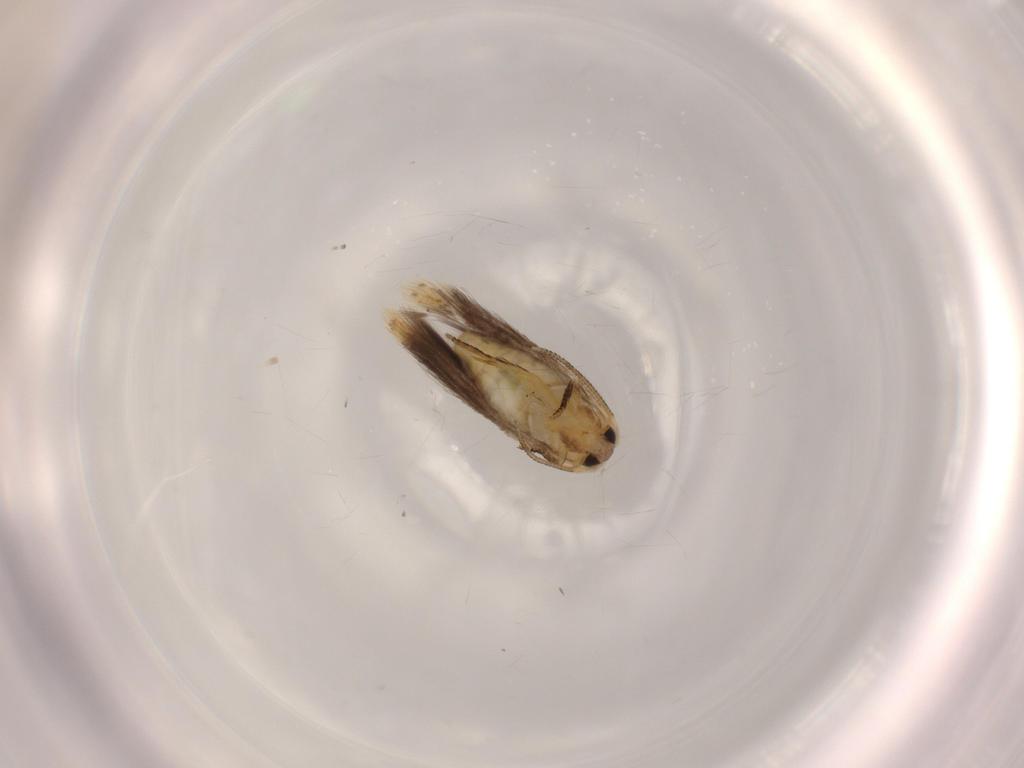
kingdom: Animalia
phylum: Arthropoda
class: Insecta
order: Lepidoptera
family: Nepticulidae
